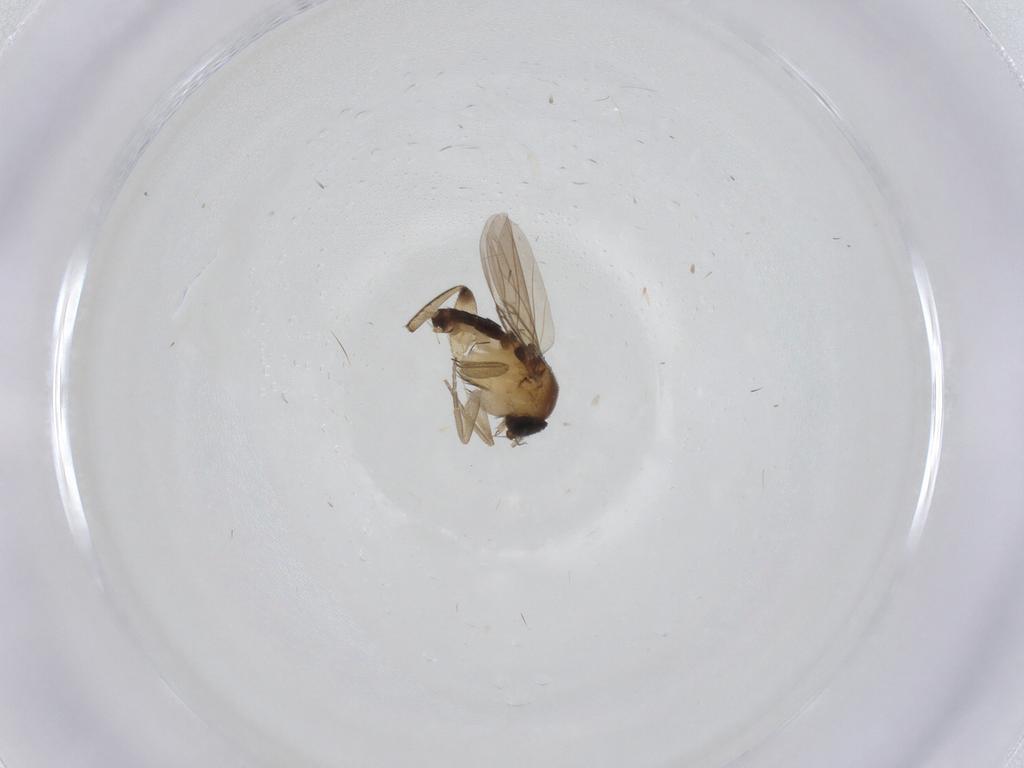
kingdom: Animalia
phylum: Arthropoda
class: Insecta
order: Diptera
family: Phoridae
